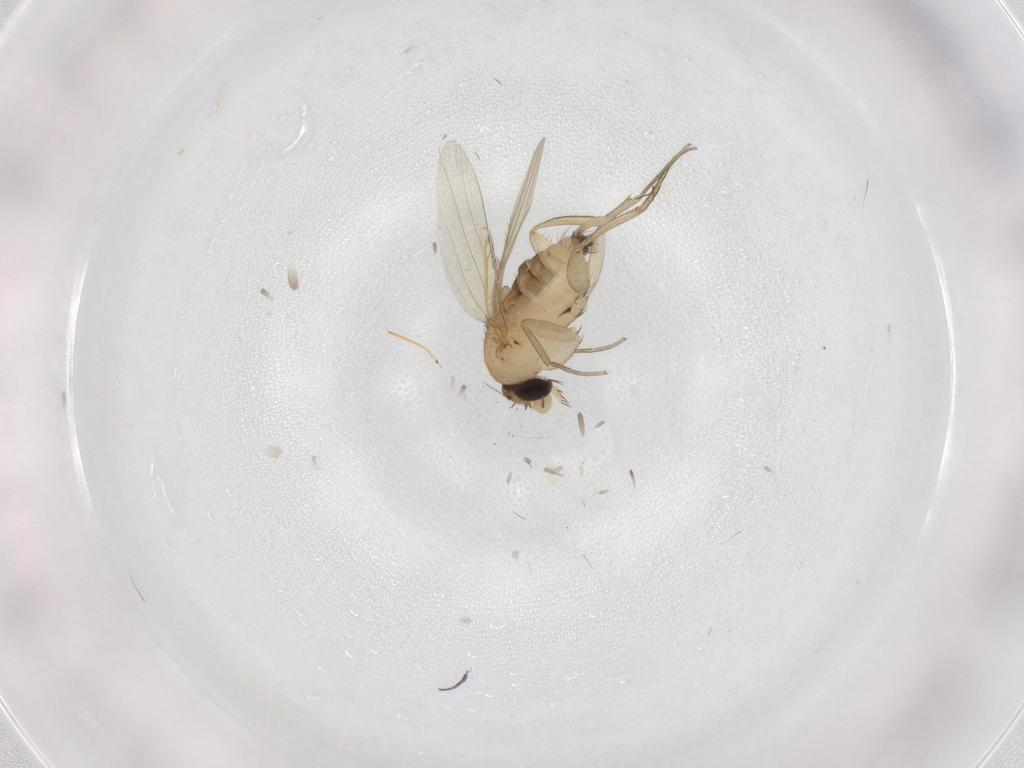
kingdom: Animalia
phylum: Arthropoda
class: Insecta
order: Diptera
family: Phoridae
